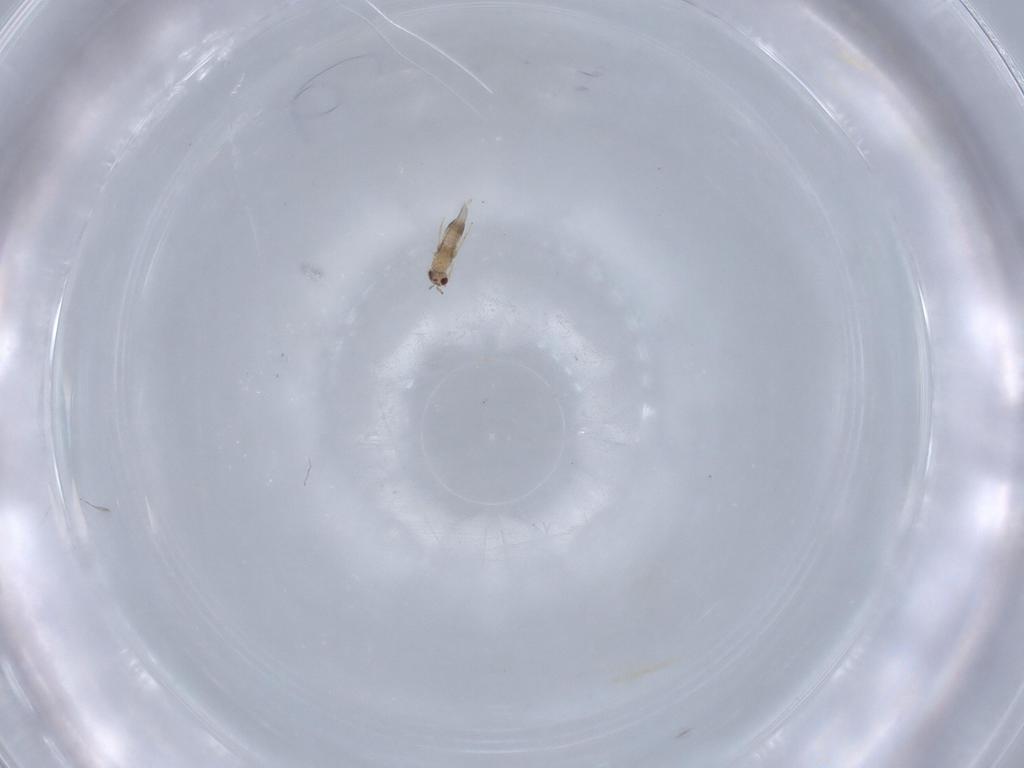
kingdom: Animalia
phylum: Arthropoda
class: Insecta
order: Hymenoptera
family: Mymaridae
